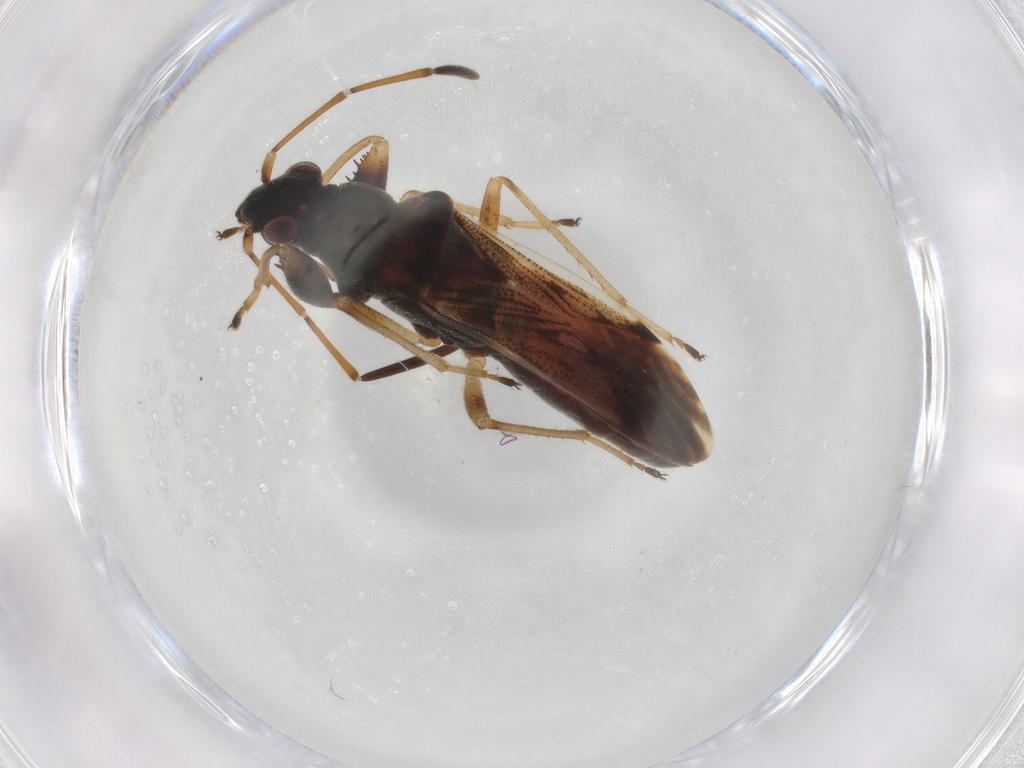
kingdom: Animalia
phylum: Arthropoda
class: Insecta
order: Hemiptera
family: Rhyparochromidae
